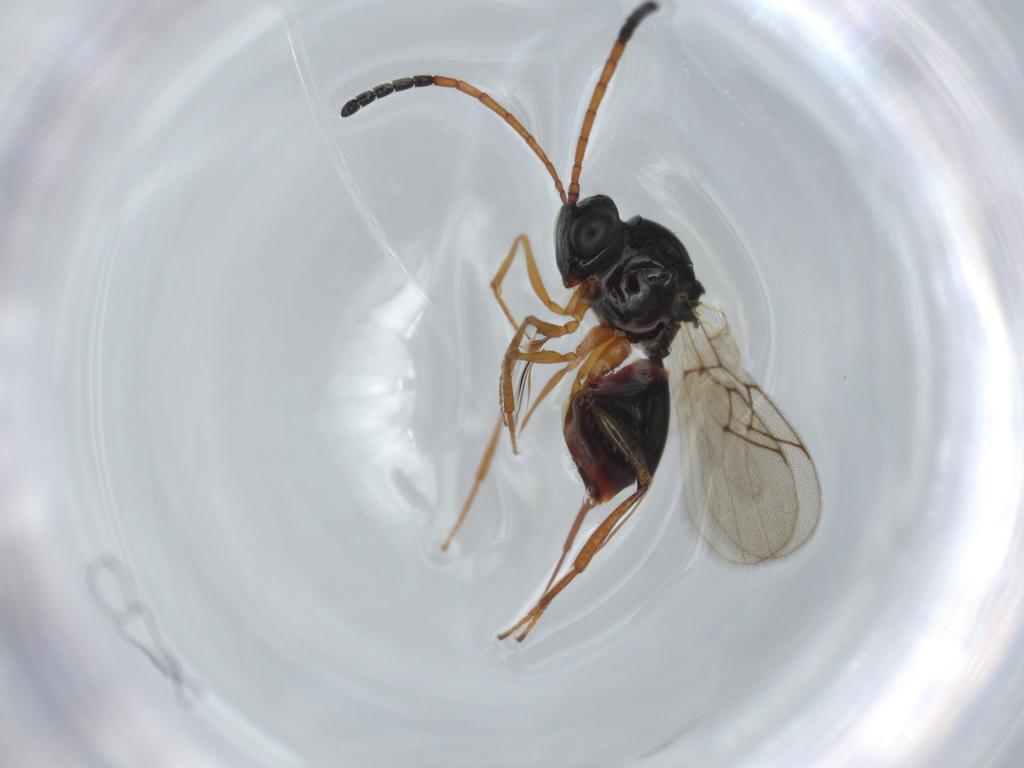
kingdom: Animalia
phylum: Arthropoda
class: Insecta
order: Hymenoptera
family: Figitidae
